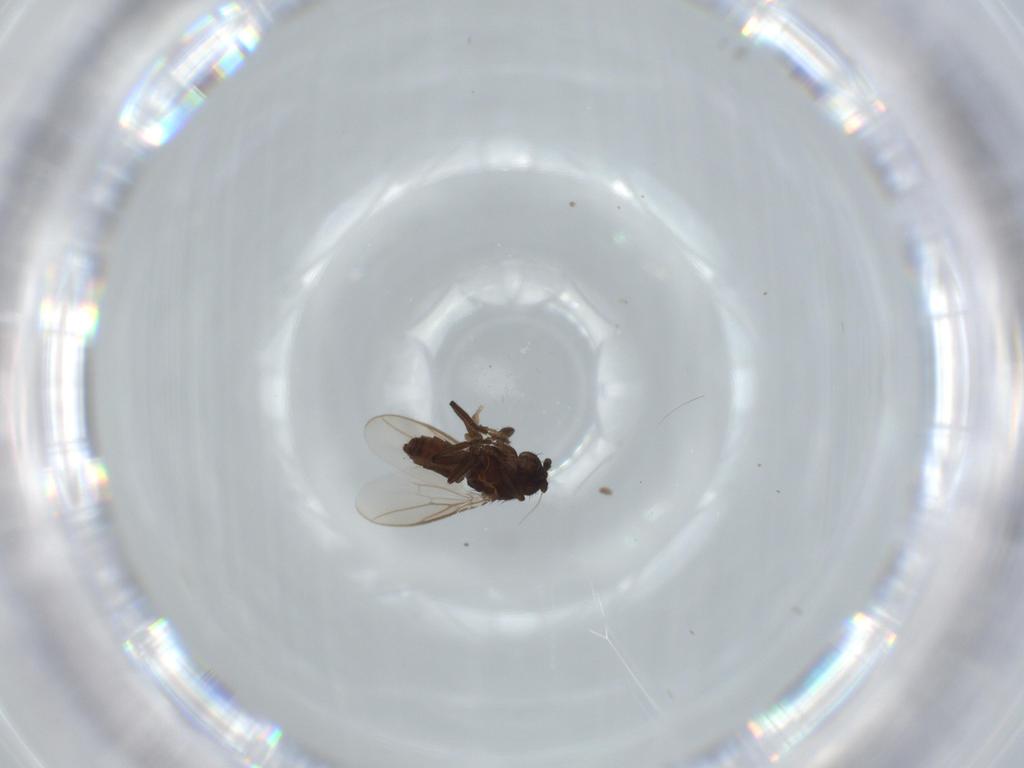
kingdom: Animalia
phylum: Arthropoda
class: Insecta
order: Diptera
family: Sphaeroceridae
